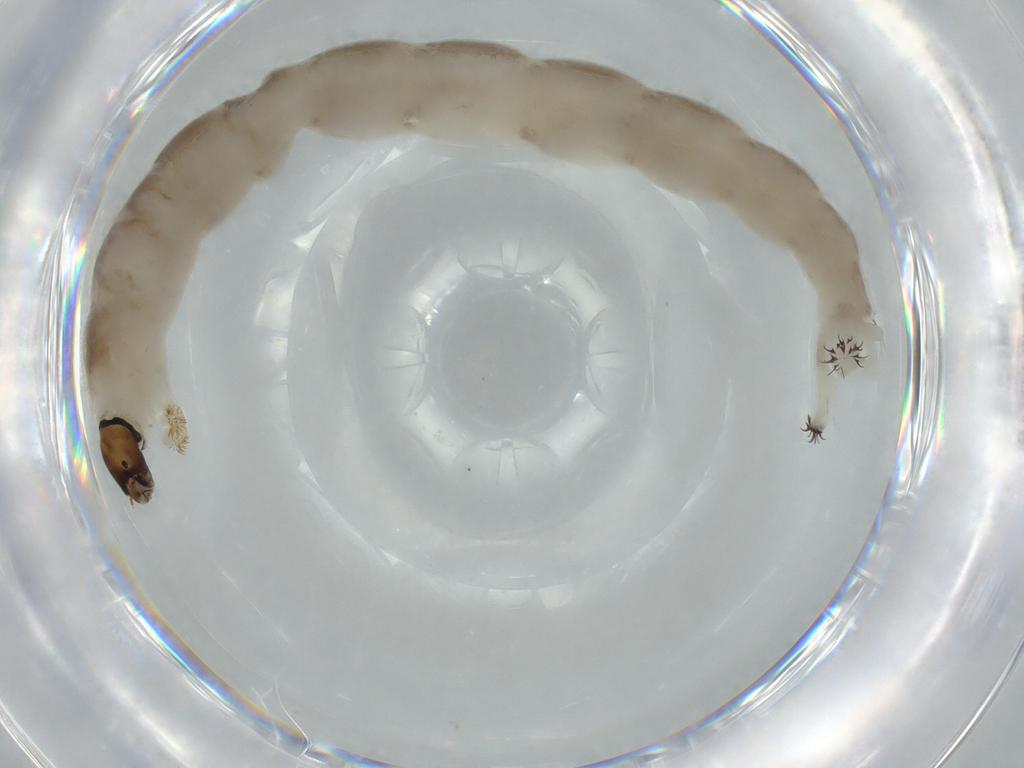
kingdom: Animalia
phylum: Arthropoda
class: Insecta
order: Diptera
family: Chironomidae
